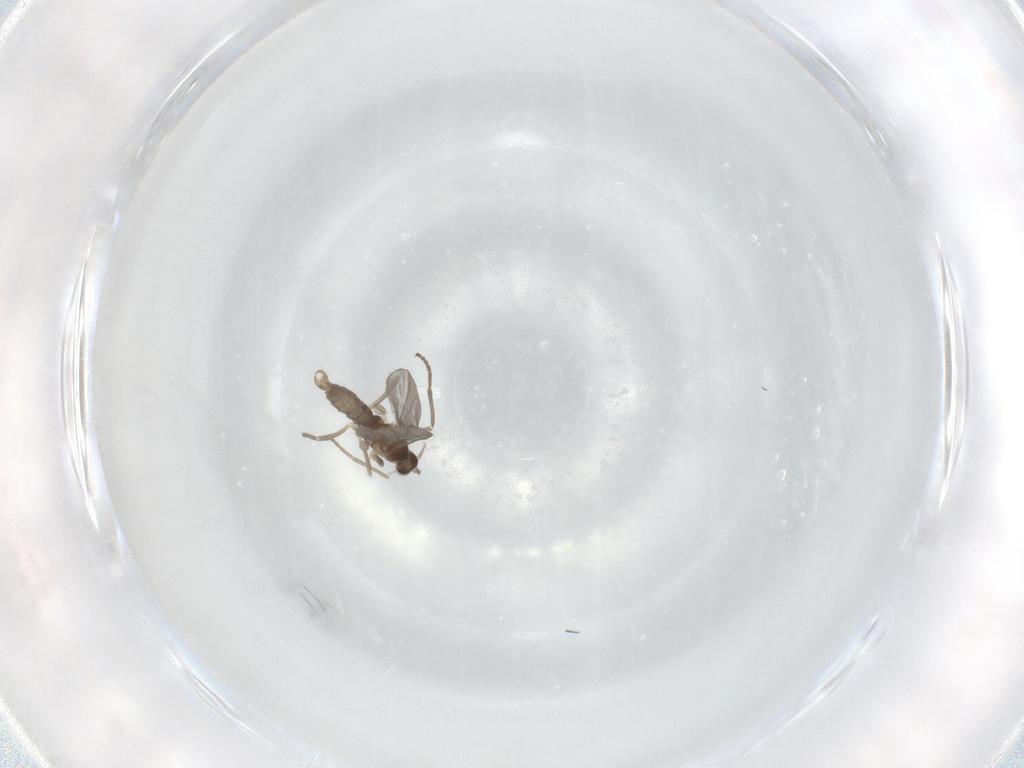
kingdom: Animalia
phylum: Arthropoda
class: Insecta
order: Diptera
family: Cecidomyiidae
